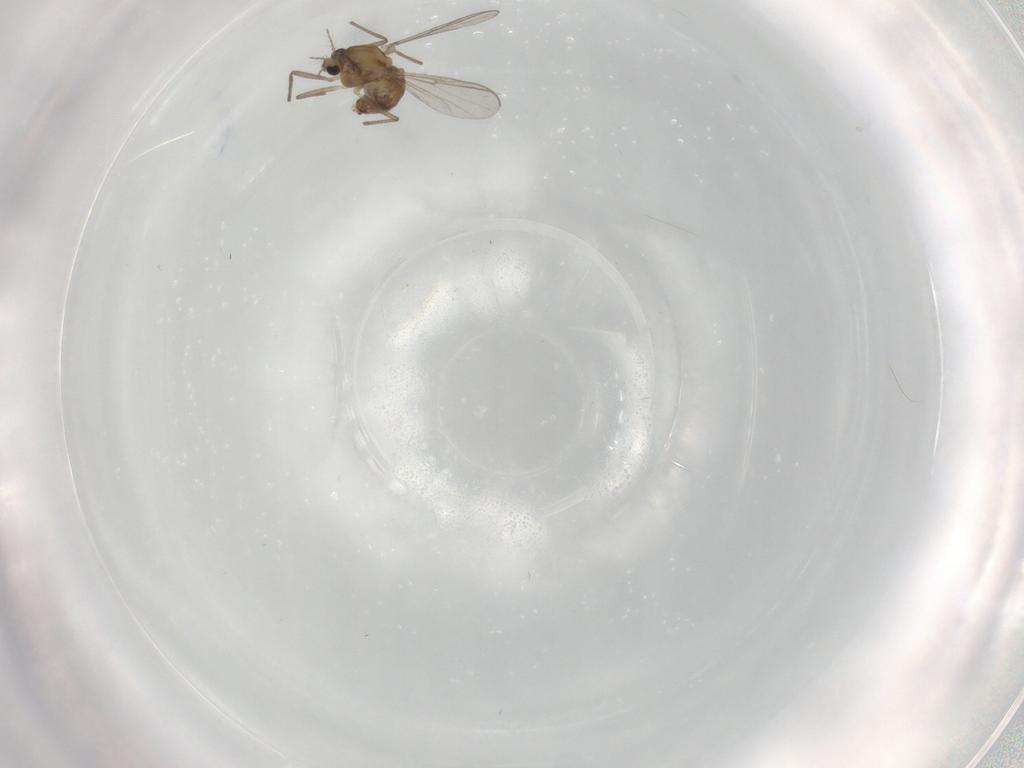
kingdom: Animalia
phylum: Arthropoda
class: Insecta
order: Diptera
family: Chironomidae
